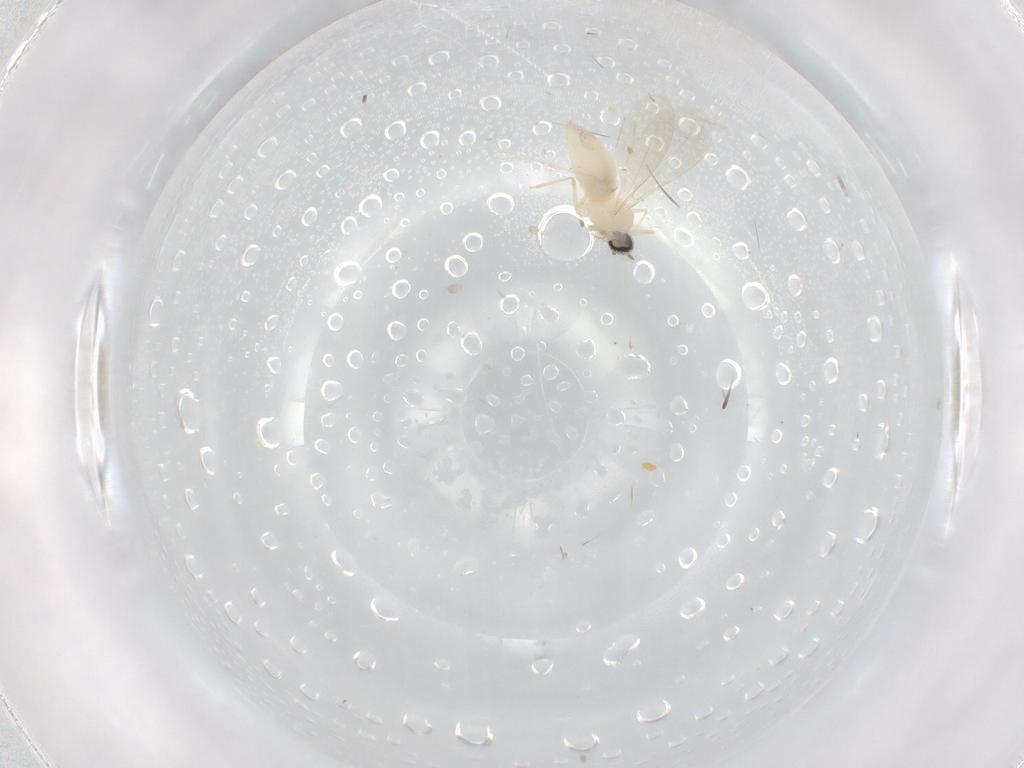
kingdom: Animalia
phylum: Arthropoda
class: Insecta
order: Diptera
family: Cecidomyiidae
